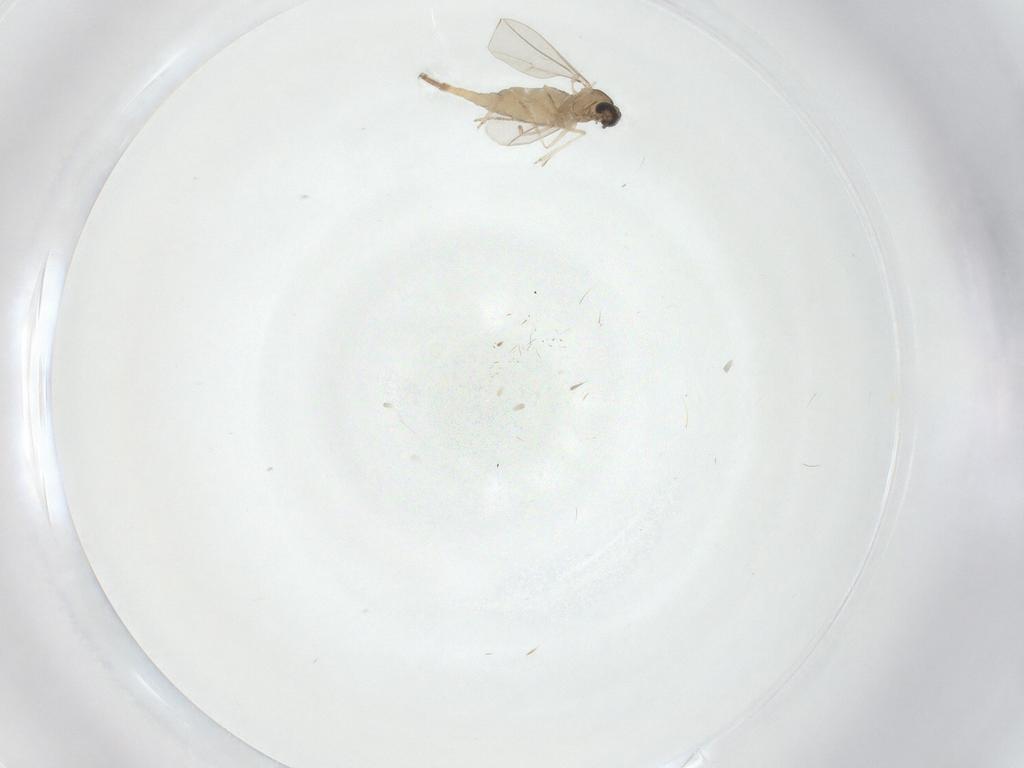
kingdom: Animalia
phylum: Arthropoda
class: Insecta
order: Diptera
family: Cecidomyiidae
